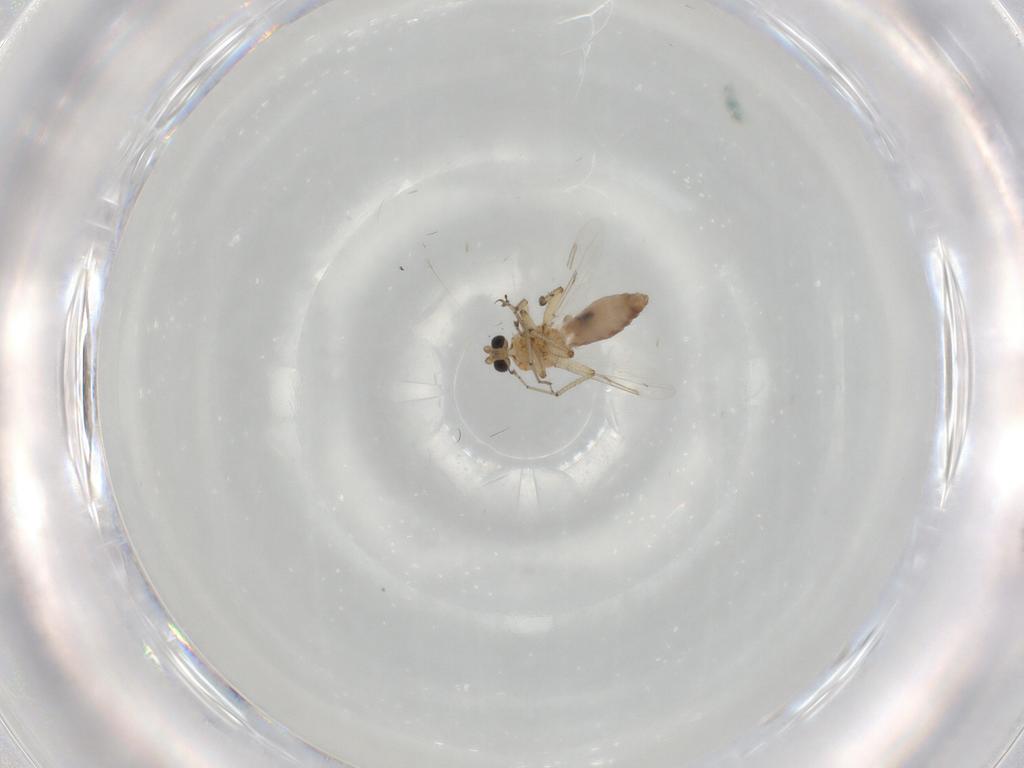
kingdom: Animalia
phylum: Arthropoda
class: Insecta
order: Diptera
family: Ceratopogonidae
